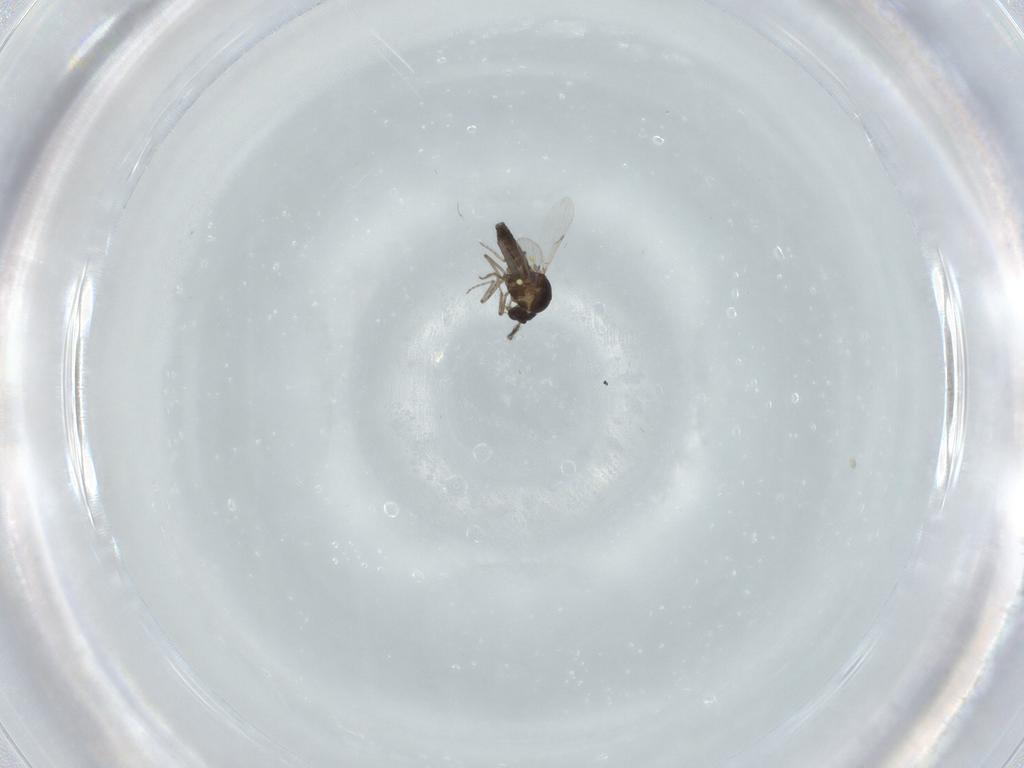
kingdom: Animalia
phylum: Arthropoda
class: Insecta
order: Diptera
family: Ceratopogonidae
